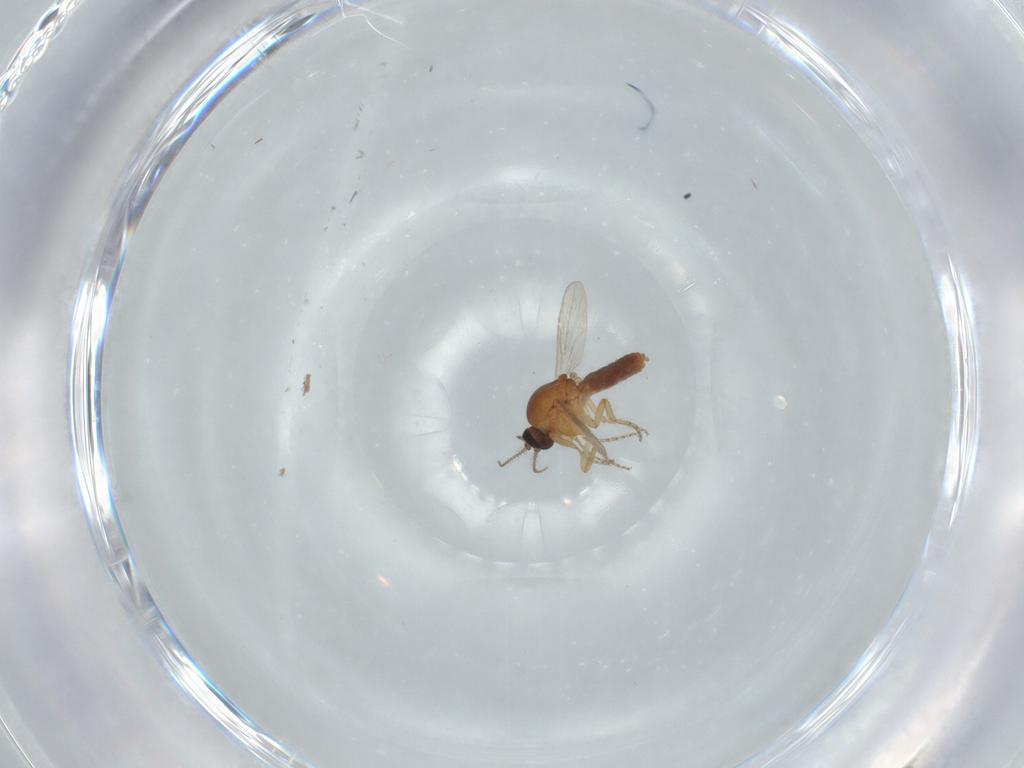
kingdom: Animalia
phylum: Arthropoda
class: Insecta
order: Diptera
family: Ceratopogonidae
